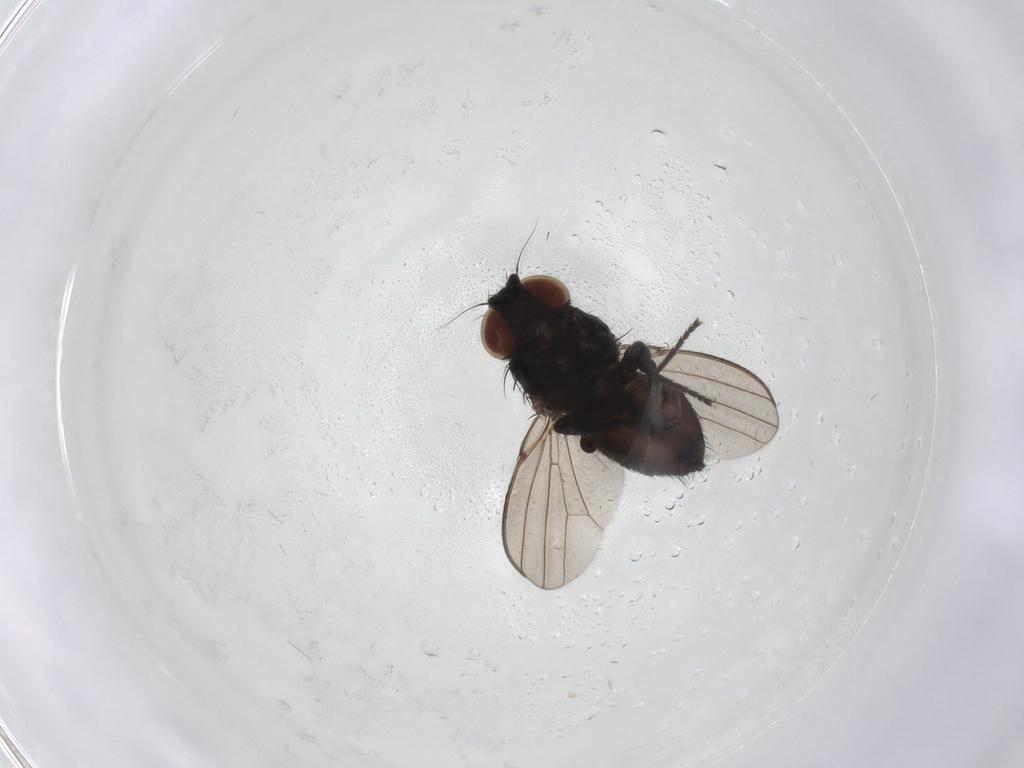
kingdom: Animalia
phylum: Arthropoda
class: Insecta
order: Diptera
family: Milichiidae
